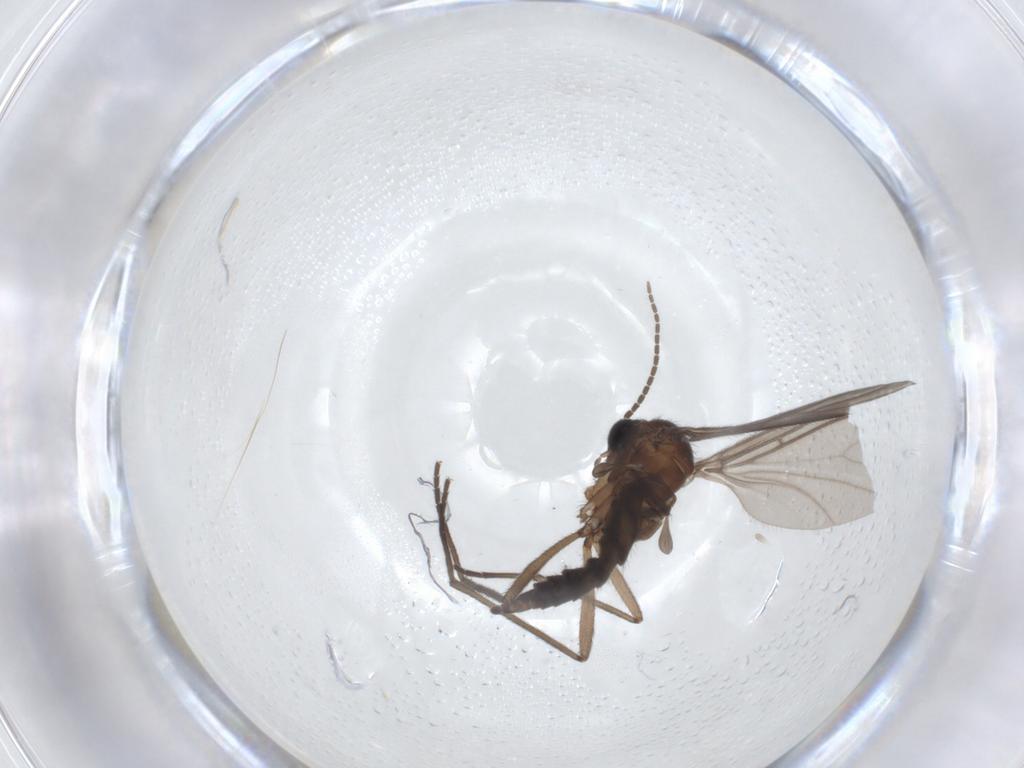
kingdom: Animalia
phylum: Arthropoda
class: Insecta
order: Diptera
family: Sciaridae
